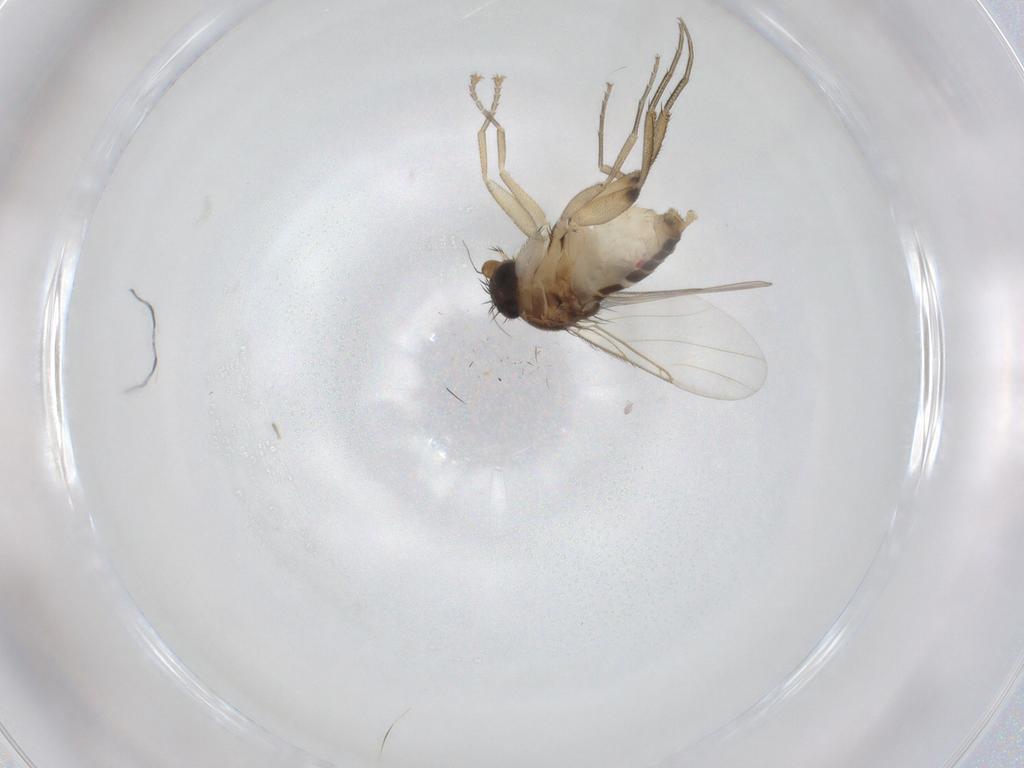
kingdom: Animalia
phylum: Arthropoda
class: Insecta
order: Diptera
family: Phoridae
